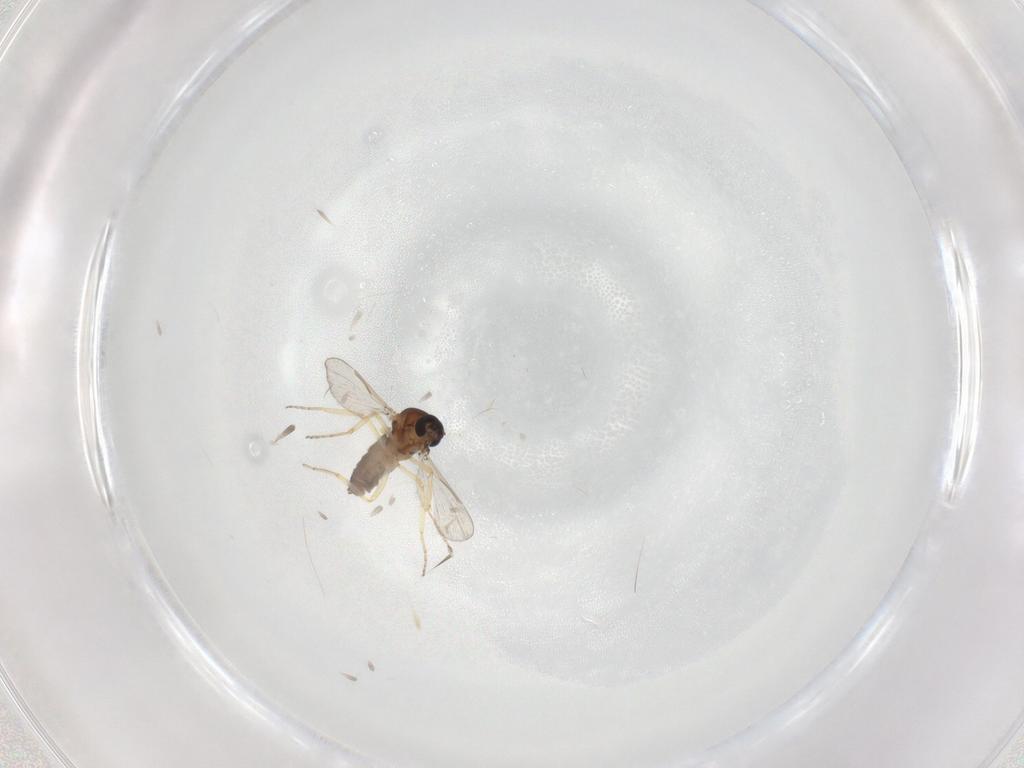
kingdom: Animalia
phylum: Arthropoda
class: Insecta
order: Diptera
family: Ceratopogonidae
